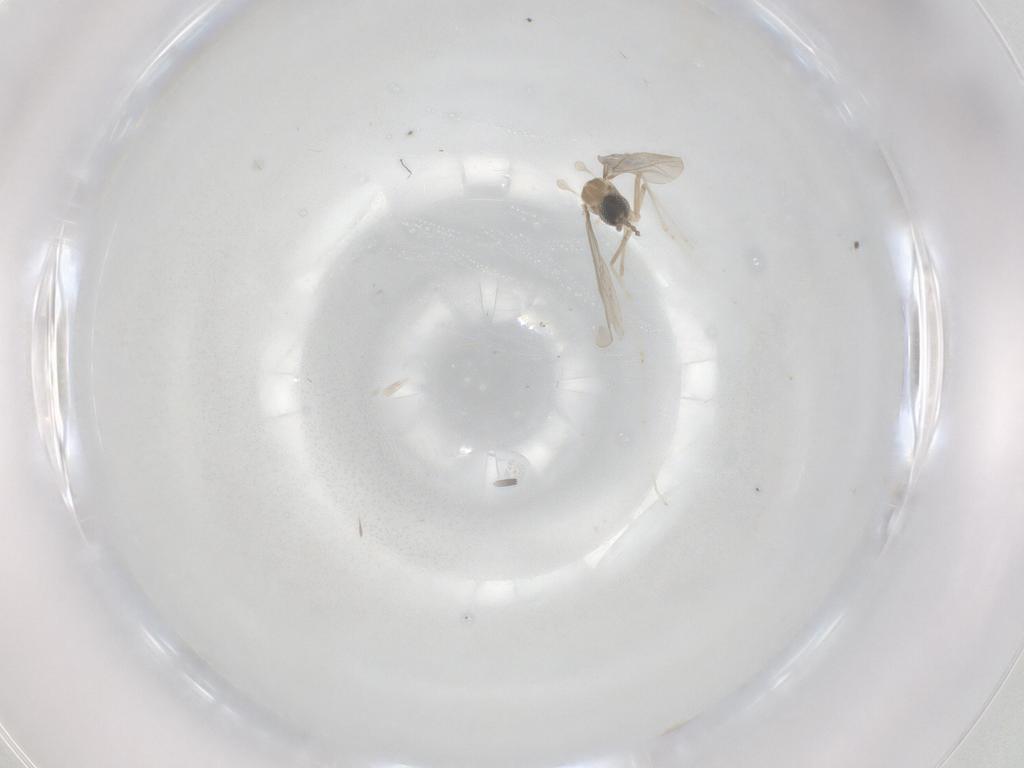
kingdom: Animalia
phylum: Arthropoda
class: Insecta
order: Diptera
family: Cecidomyiidae
